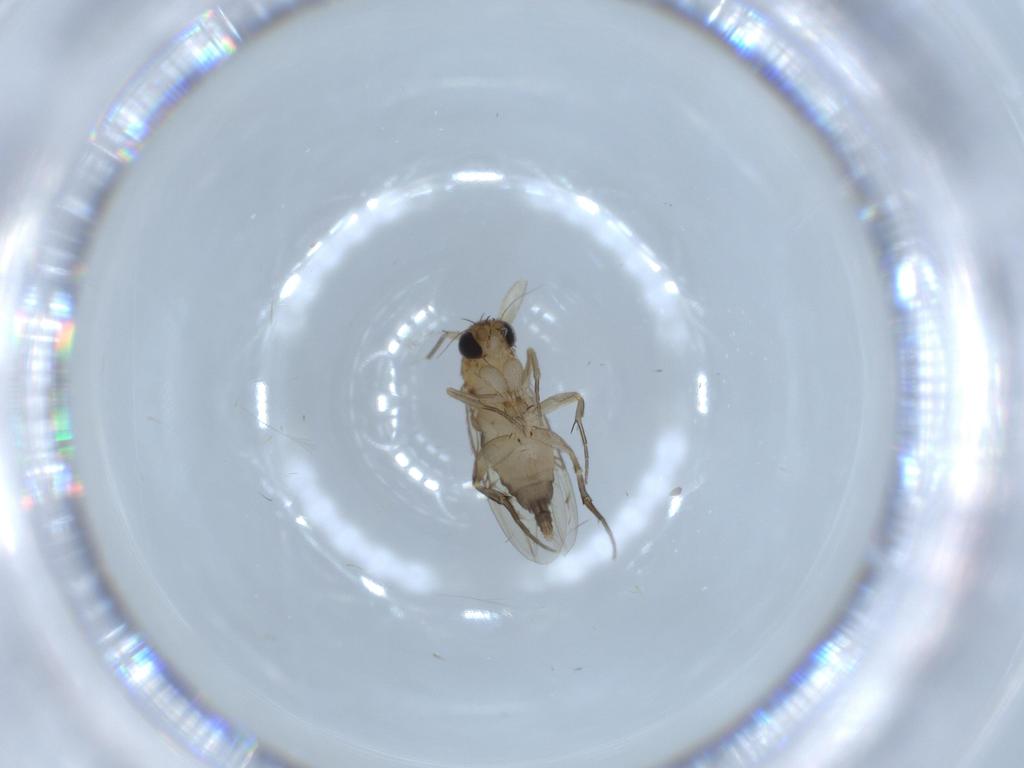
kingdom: Animalia
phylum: Arthropoda
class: Insecta
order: Diptera
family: Phoridae
